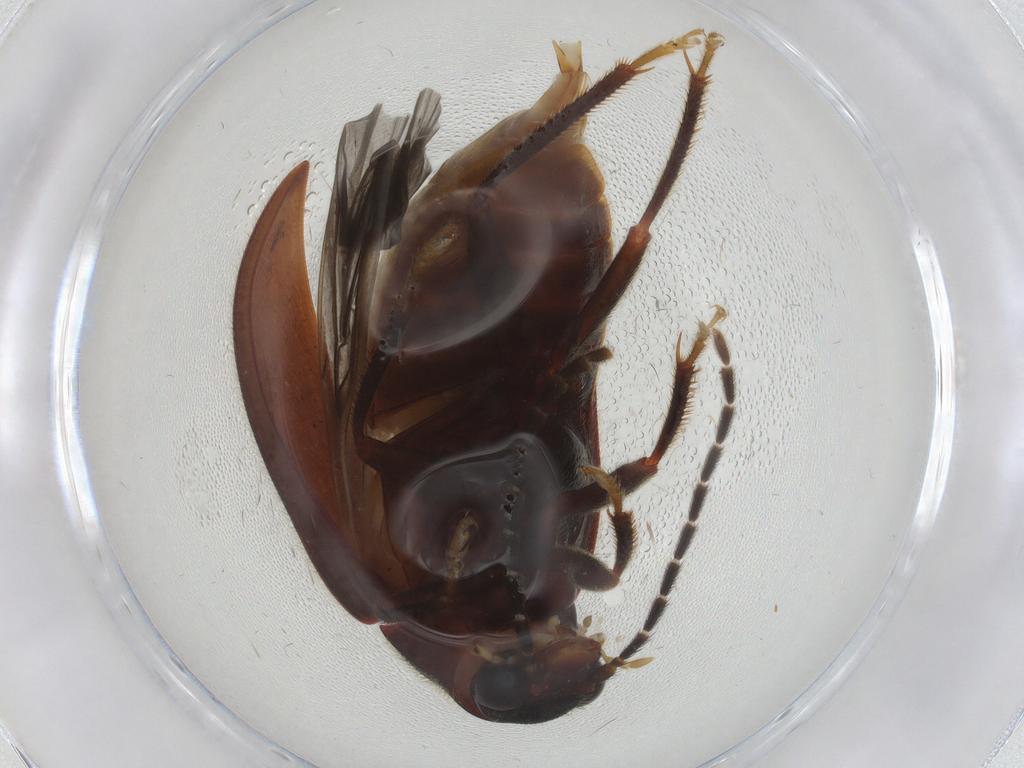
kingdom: Animalia
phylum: Arthropoda
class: Insecta
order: Coleoptera
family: Ptilodactylidae
